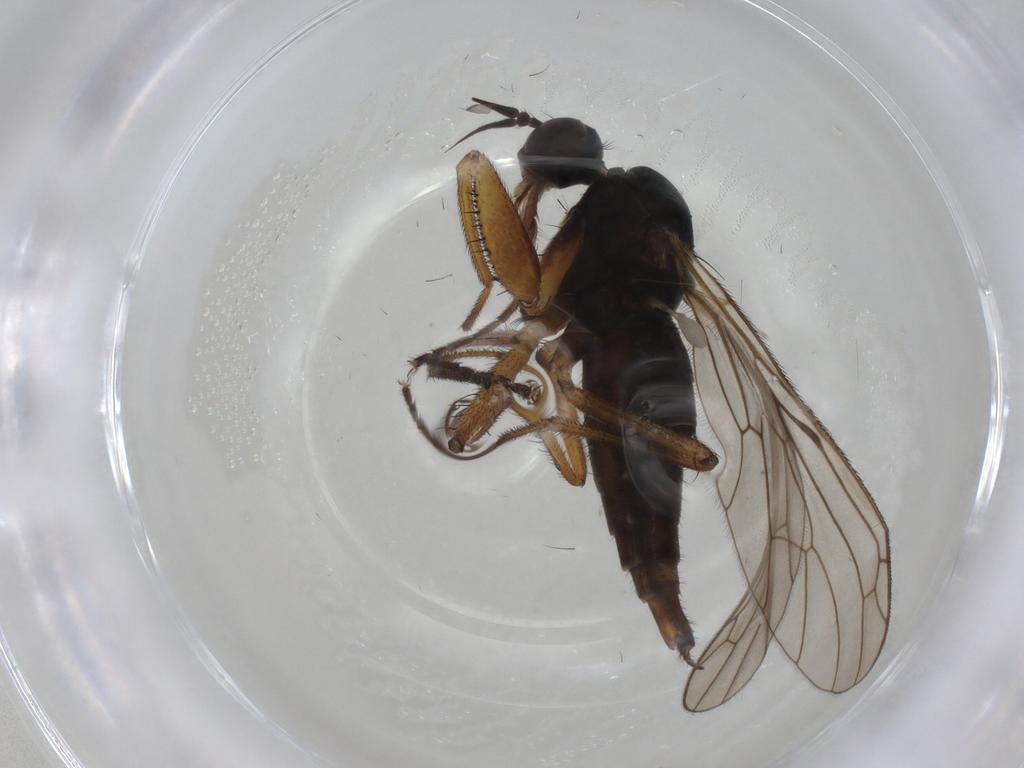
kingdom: Animalia
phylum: Arthropoda
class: Insecta
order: Diptera
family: Empididae
